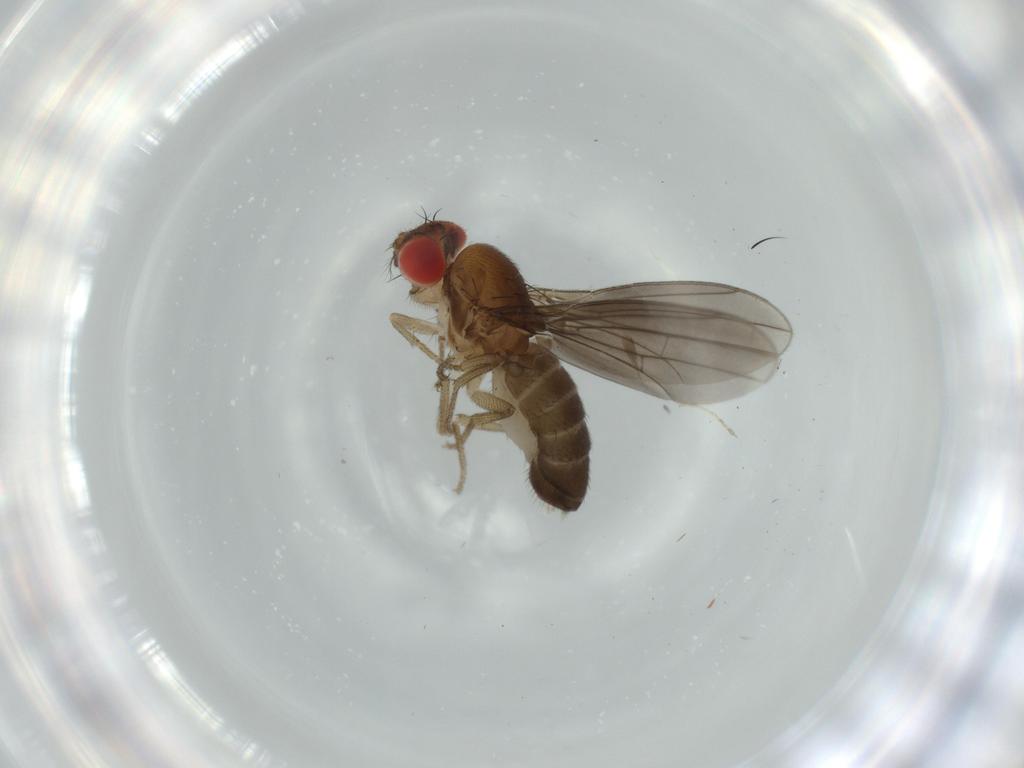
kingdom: Animalia
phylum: Arthropoda
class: Insecta
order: Diptera
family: Drosophilidae
